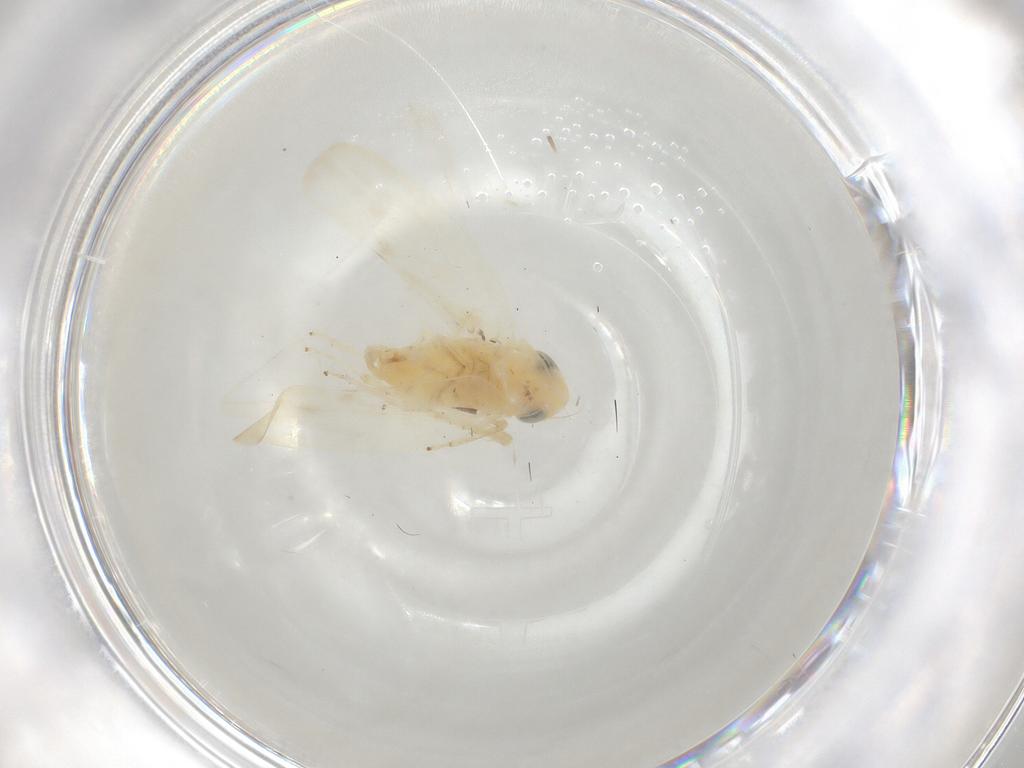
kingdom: Animalia
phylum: Arthropoda
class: Insecta
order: Hemiptera
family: Cicadellidae
